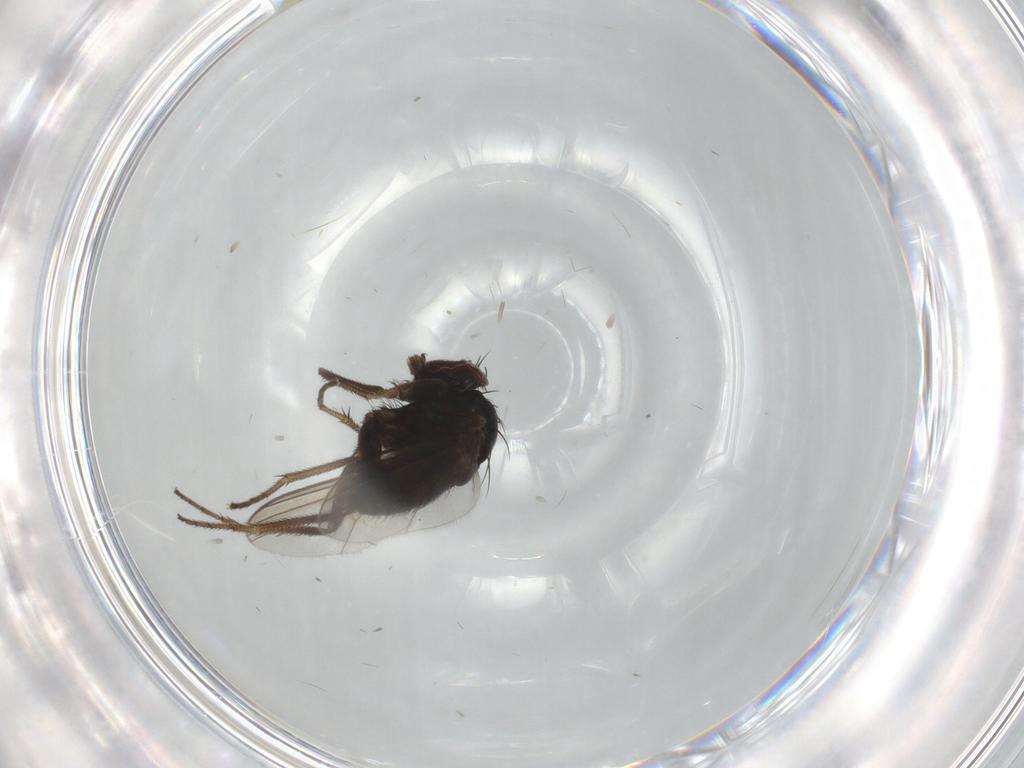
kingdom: Animalia
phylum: Arthropoda
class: Insecta
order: Diptera
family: Dolichopodidae
